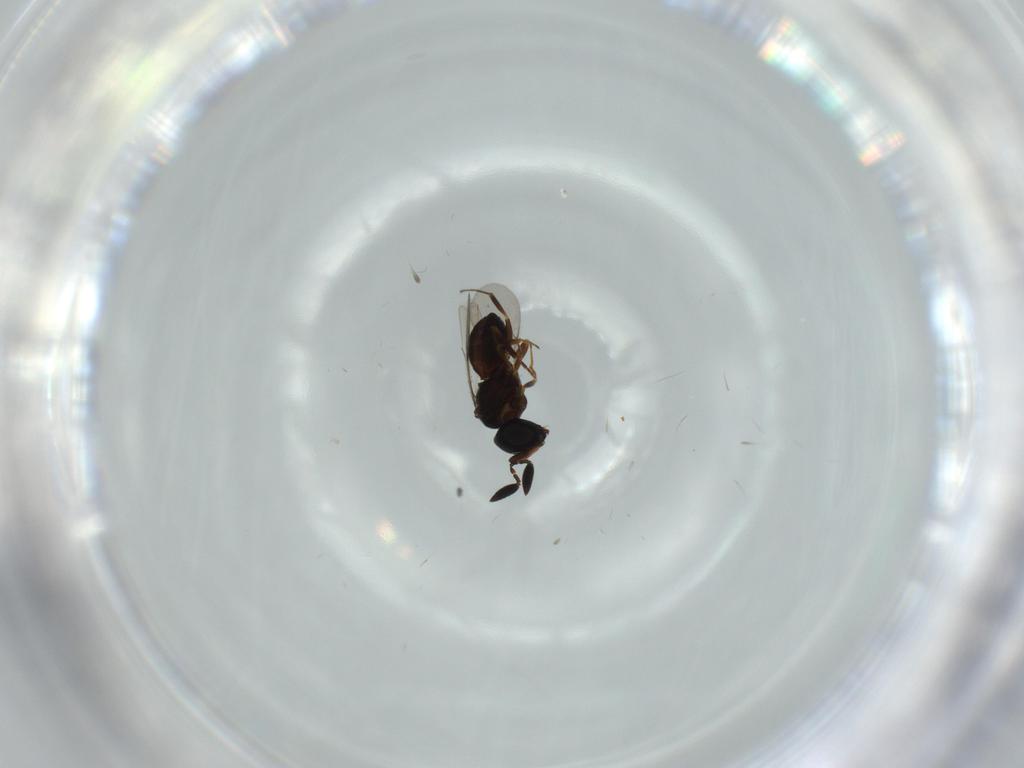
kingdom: Animalia
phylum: Arthropoda
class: Insecta
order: Hymenoptera
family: Scelionidae
